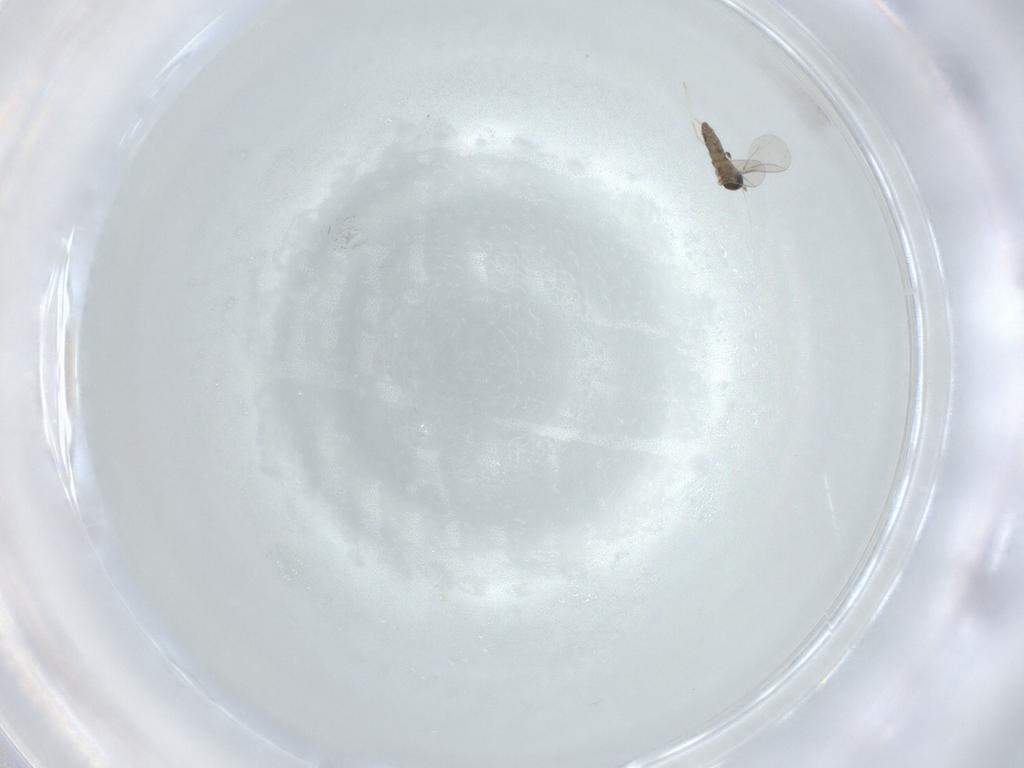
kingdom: Animalia
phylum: Arthropoda
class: Insecta
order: Diptera
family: Cecidomyiidae
